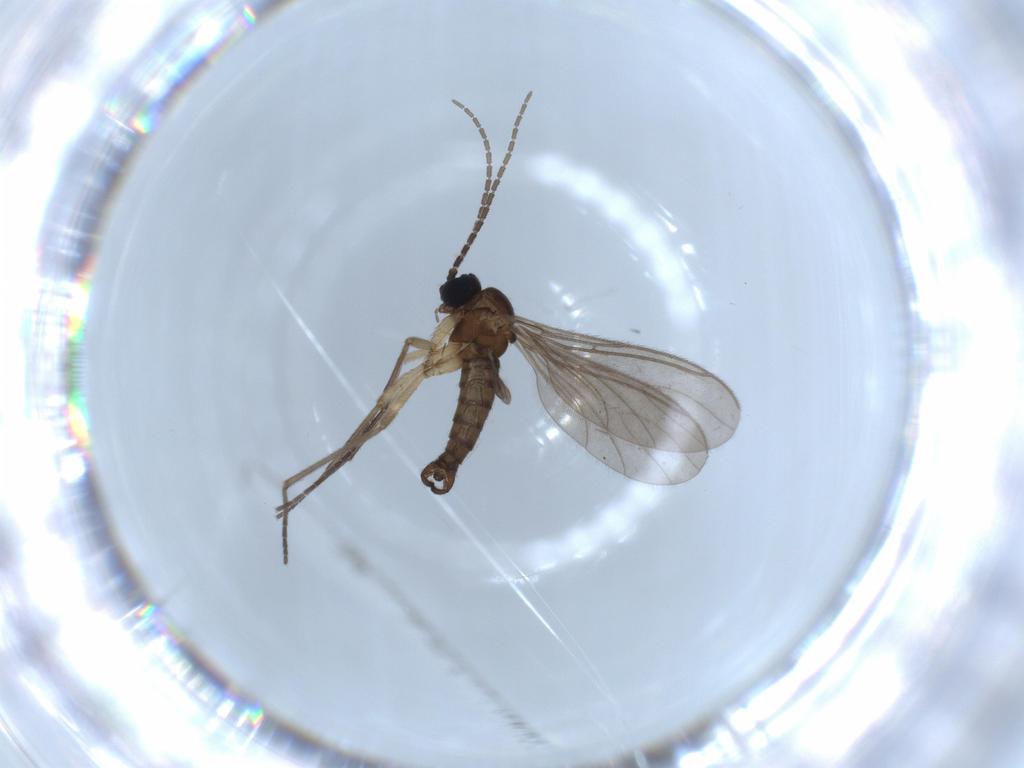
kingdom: Animalia
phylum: Arthropoda
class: Insecta
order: Diptera
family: Sciaridae
